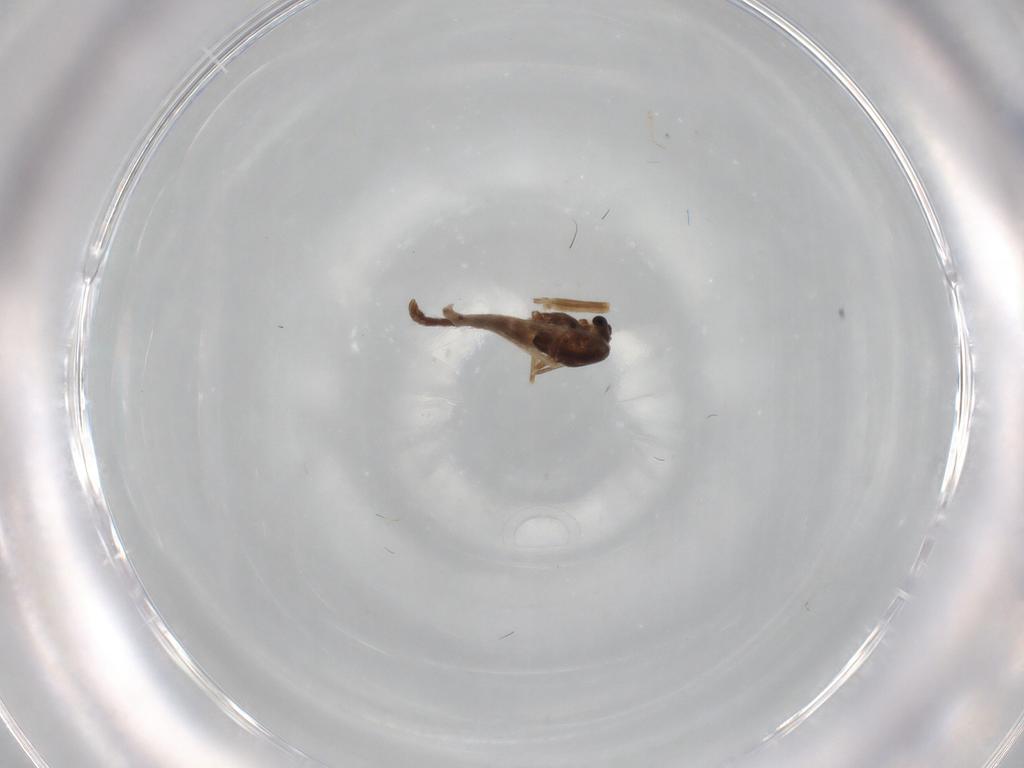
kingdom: Animalia
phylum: Arthropoda
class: Insecta
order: Diptera
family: Chironomidae
